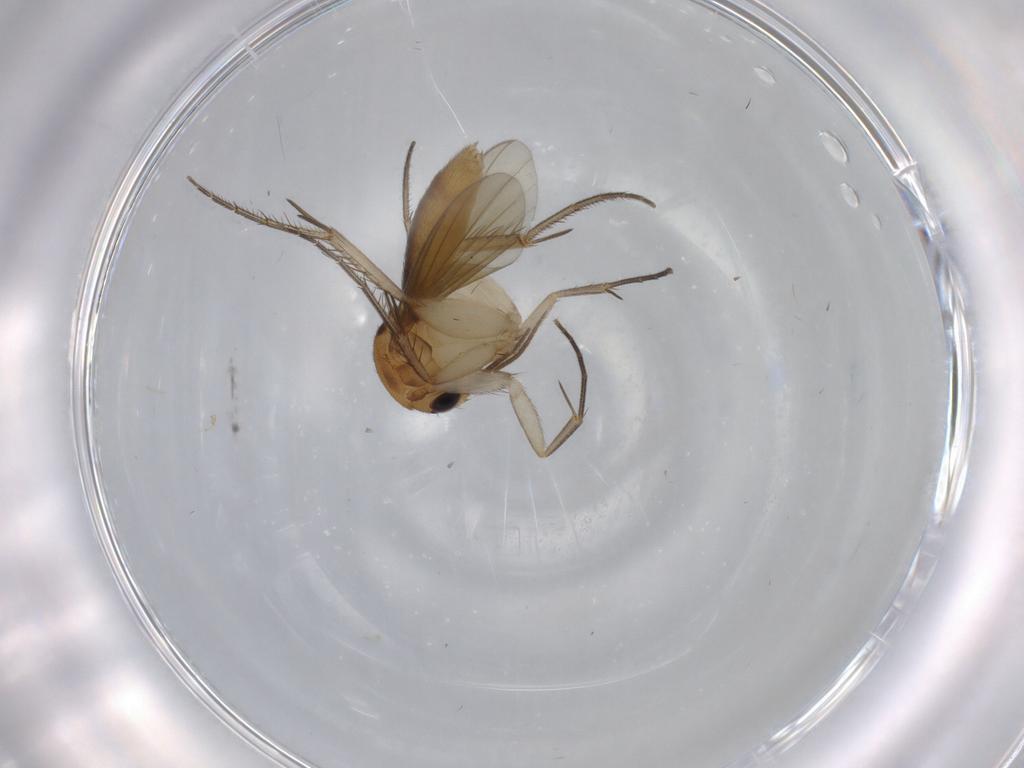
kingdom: Animalia
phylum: Arthropoda
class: Insecta
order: Diptera
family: Mycetophilidae
